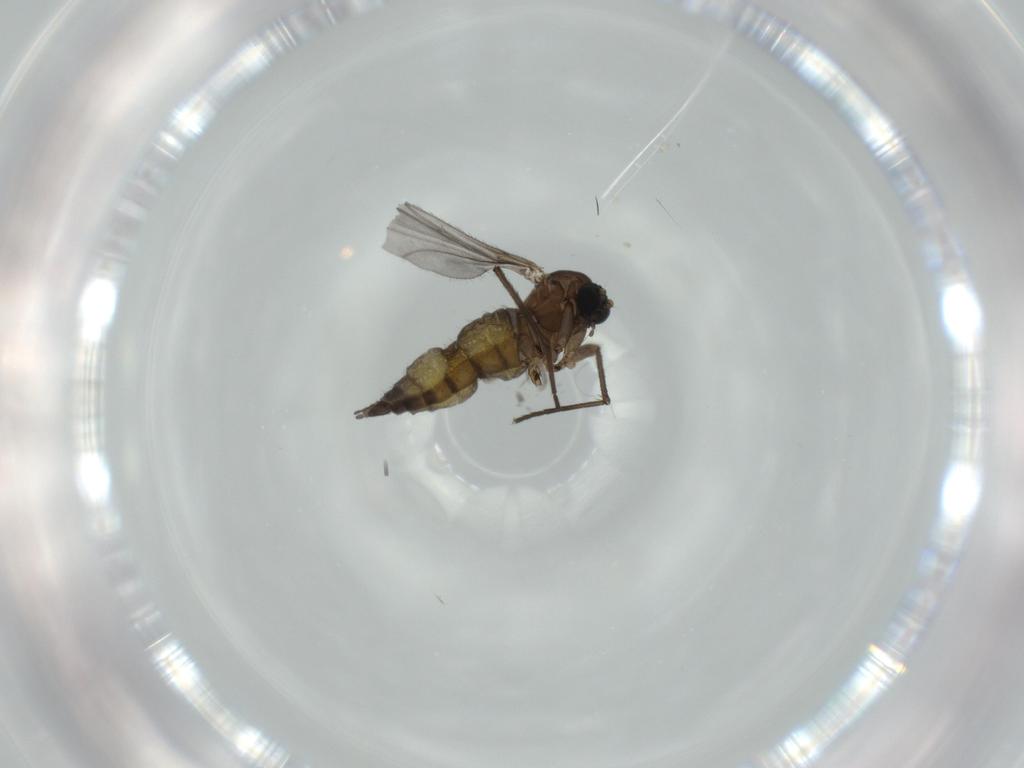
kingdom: Animalia
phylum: Arthropoda
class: Insecta
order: Diptera
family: Sciaridae
